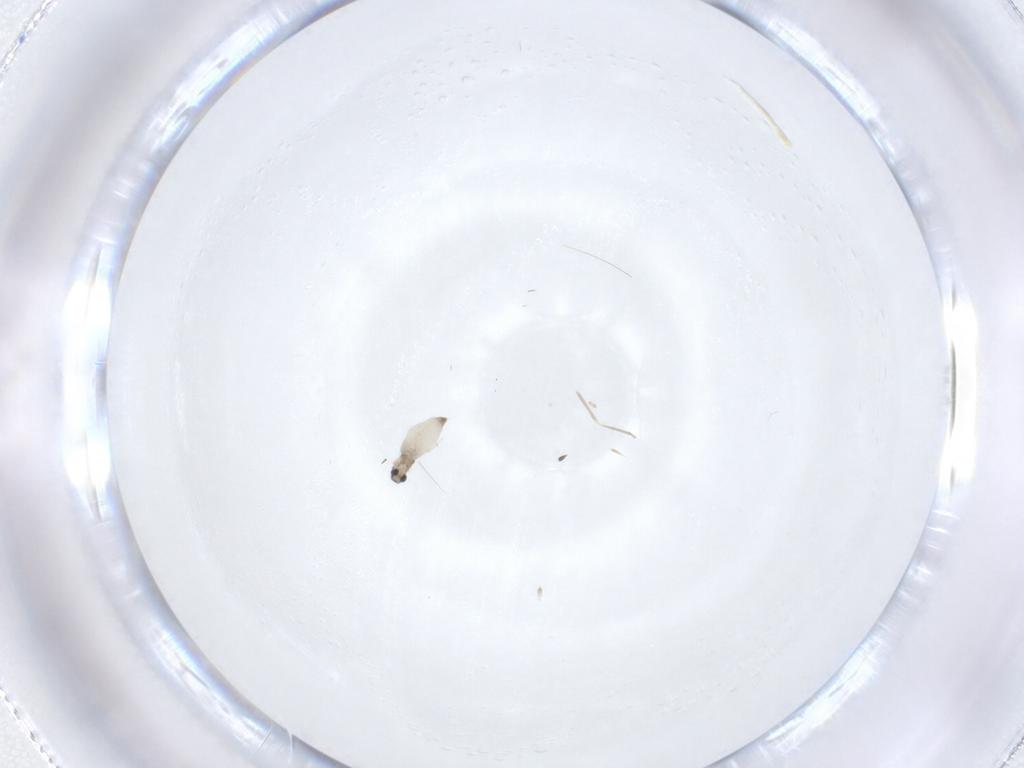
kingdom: Animalia
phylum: Arthropoda
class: Insecta
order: Diptera
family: Cecidomyiidae
